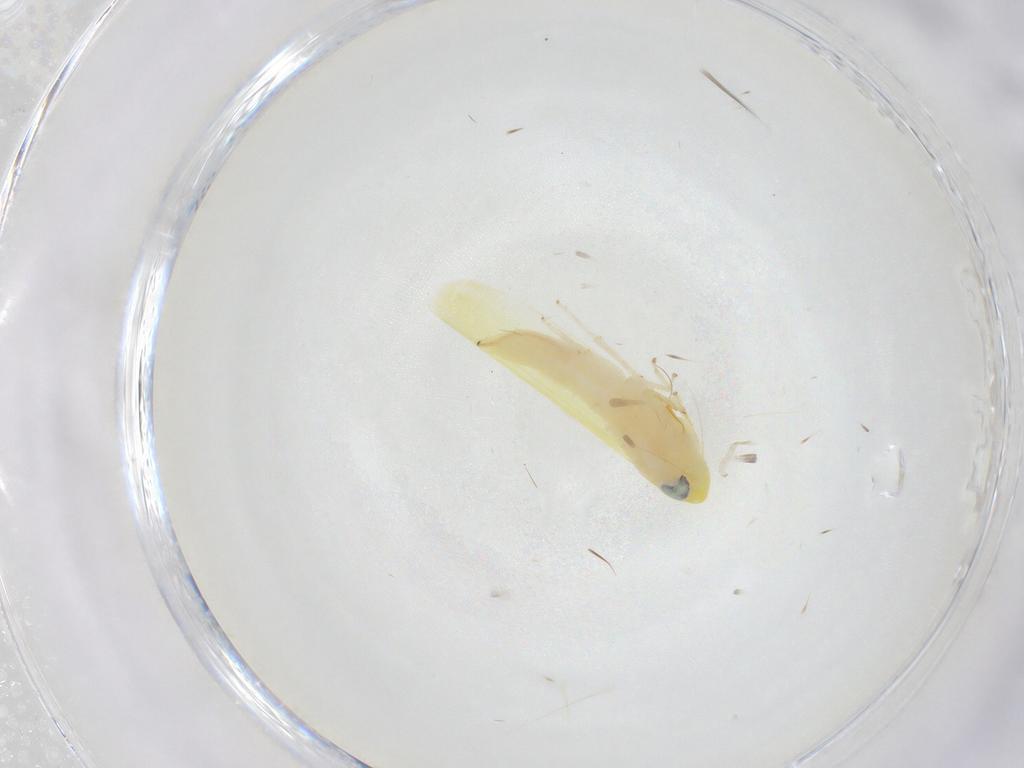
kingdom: Animalia
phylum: Arthropoda
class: Insecta
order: Hemiptera
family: Cicadellidae
